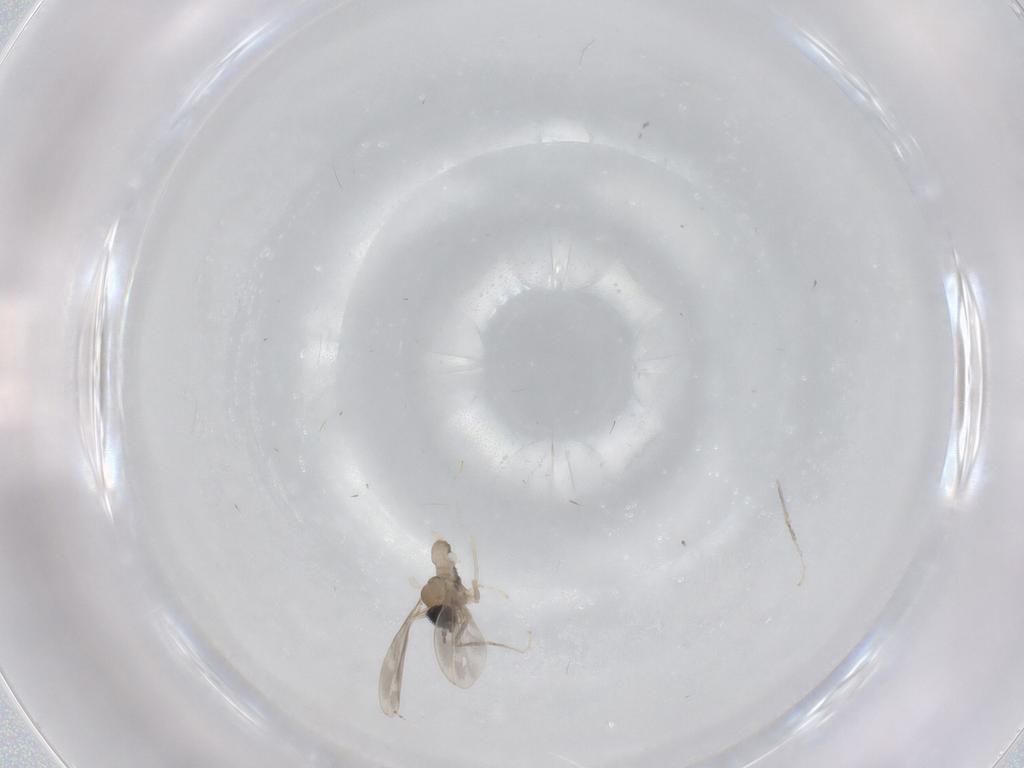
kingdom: Animalia
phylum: Arthropoda
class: Insecta
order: Diptera
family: Cecidomyiidae
